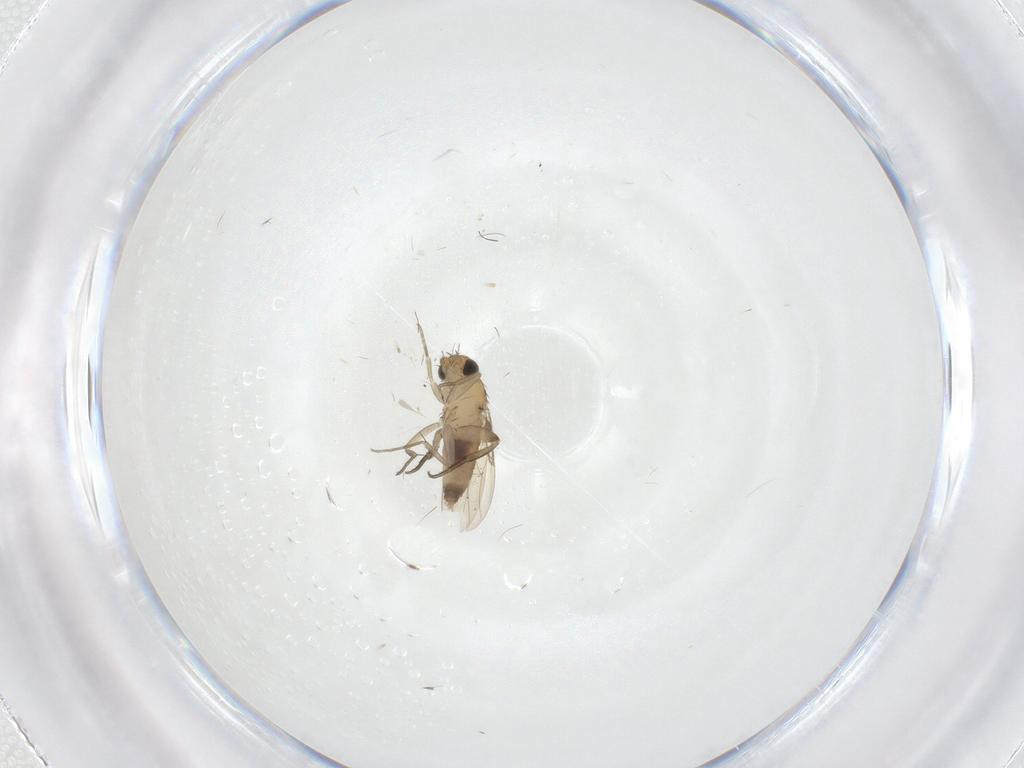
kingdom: Animalia
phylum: Arthropoda
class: Insecta
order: Diptera
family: Phoridae
